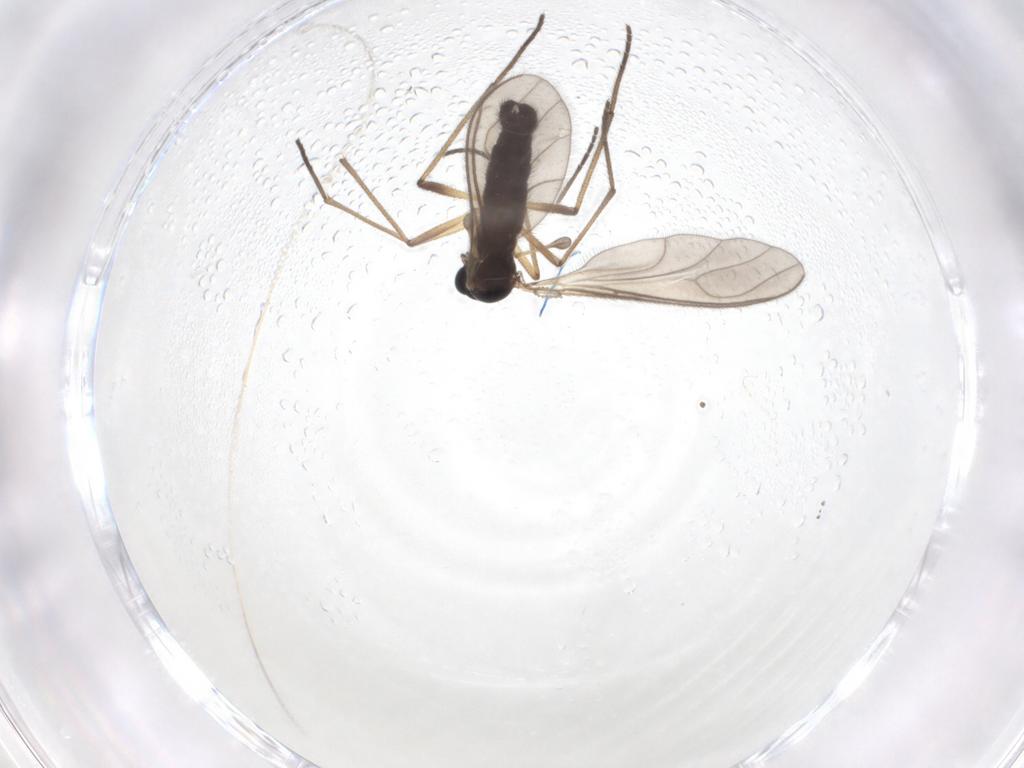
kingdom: Animalia
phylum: Arthropoda
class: Insecta
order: Diptera
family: Sciaridae
